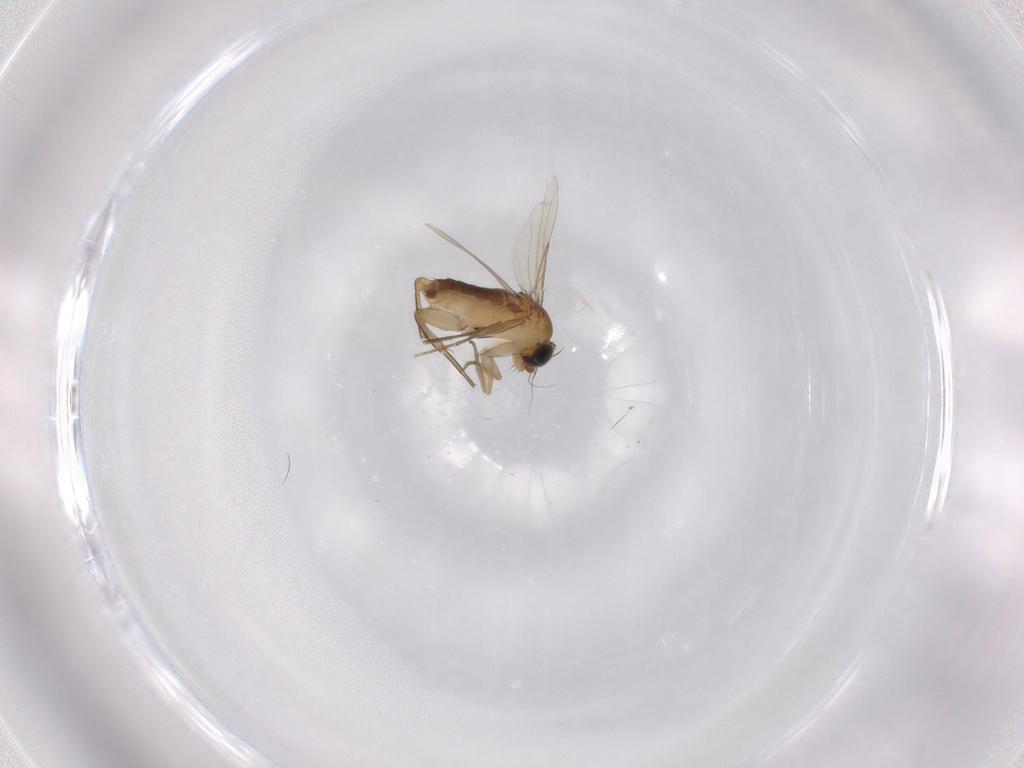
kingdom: Animalia
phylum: Arthropoda
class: Insecta
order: Diptera
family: Phoridae
